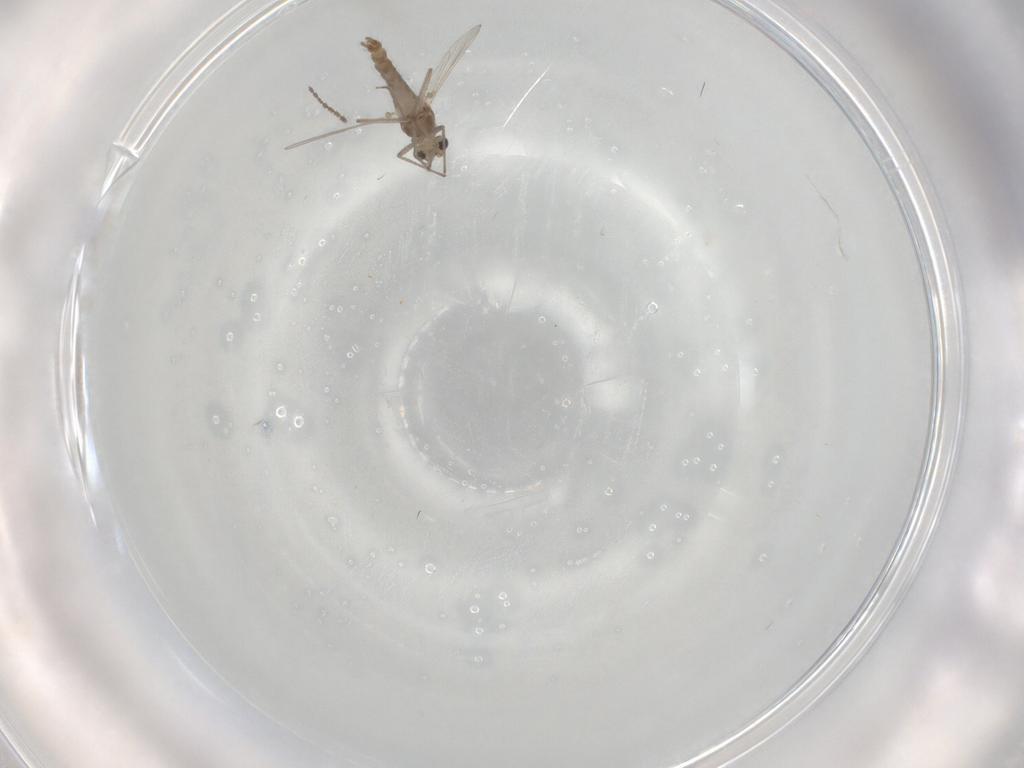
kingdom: Animalia
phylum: Arthropoda
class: Insecta
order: Diptera
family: Chironomidae
